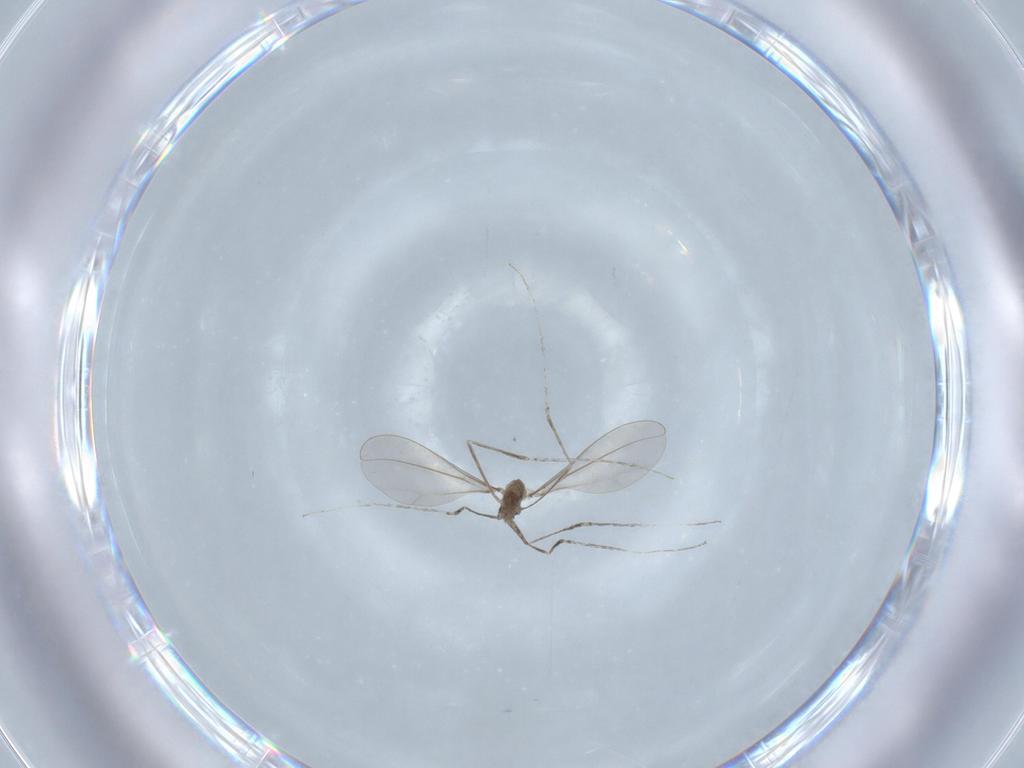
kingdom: Animalia
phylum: Arthropoda
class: Insecta
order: Diptera
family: Cecidomyiidae
